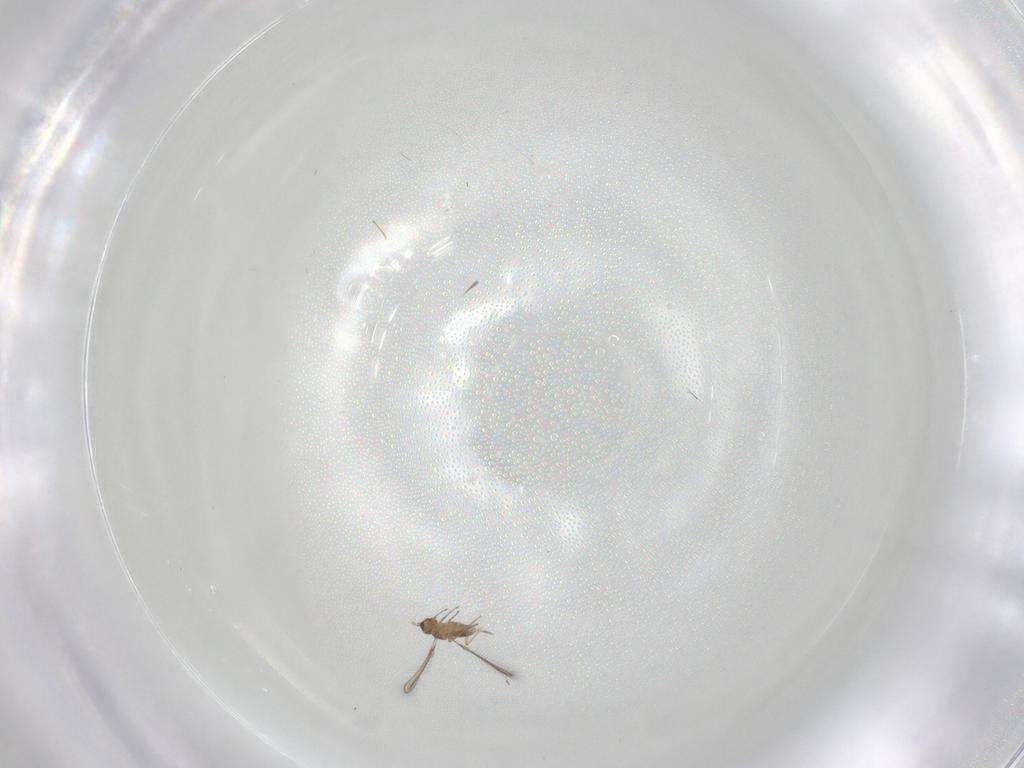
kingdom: Animalia
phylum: Arthropoda
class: Insecta
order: Hymenoptera
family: Mymaridae
